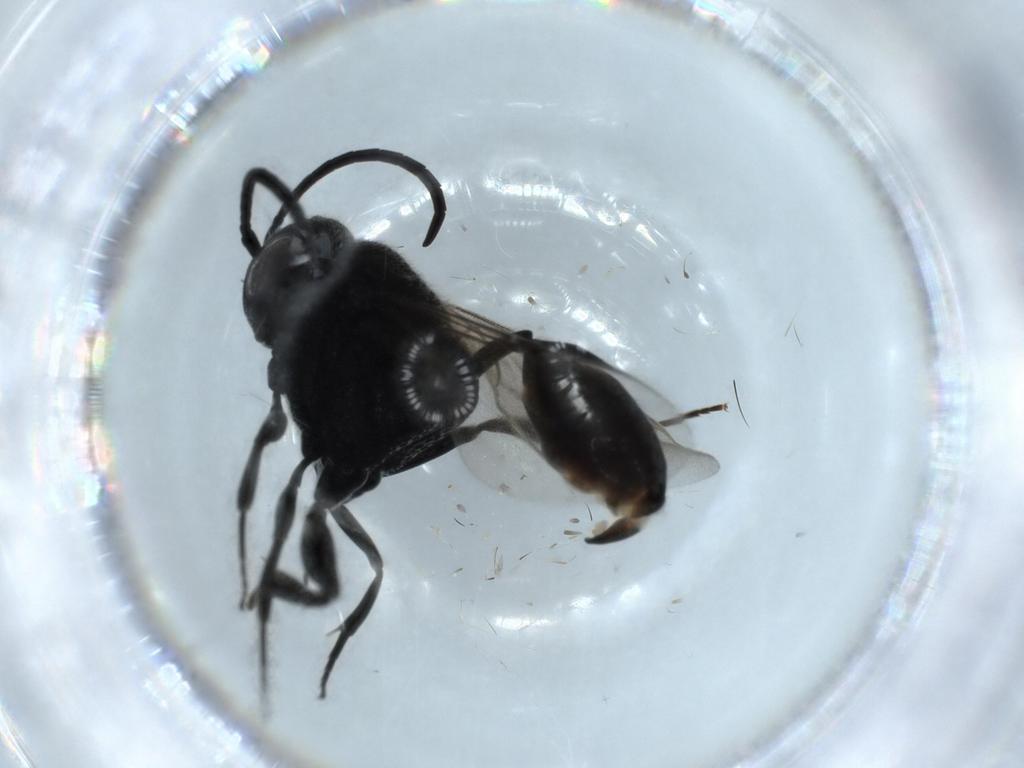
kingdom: Animalia
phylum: Arthropoda
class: Insecta
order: Hymenoptera
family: Evaniidae
